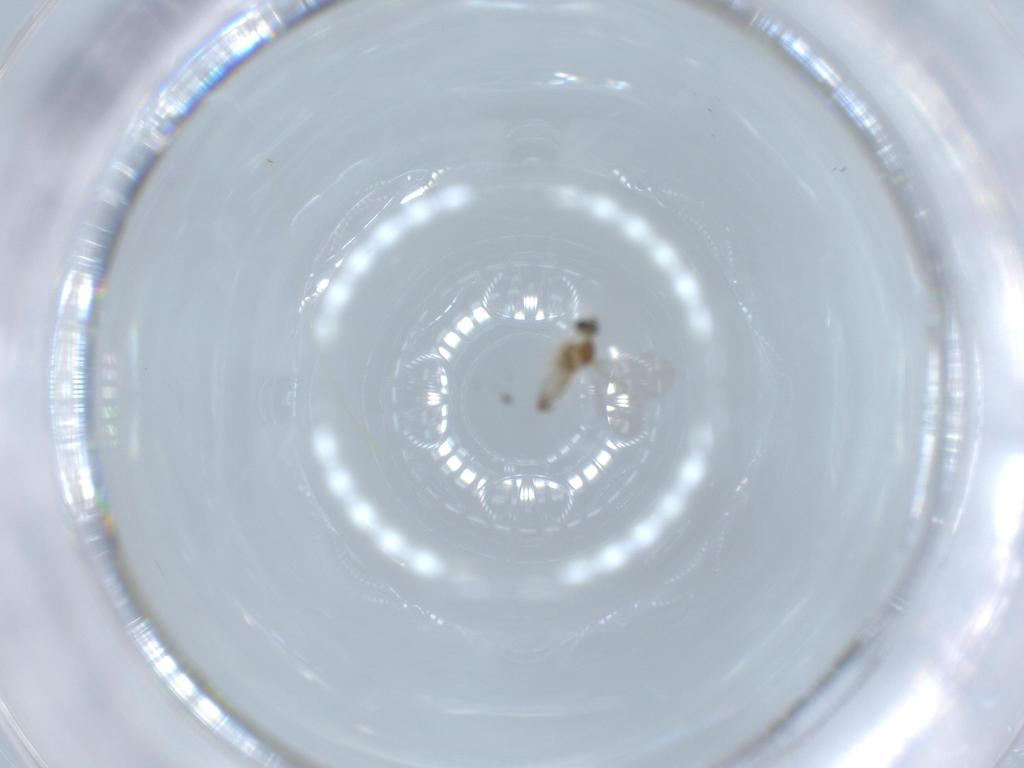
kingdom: Animalia
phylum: Arthropoda
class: Insecta
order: Diptera
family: Cecidomyiidae
